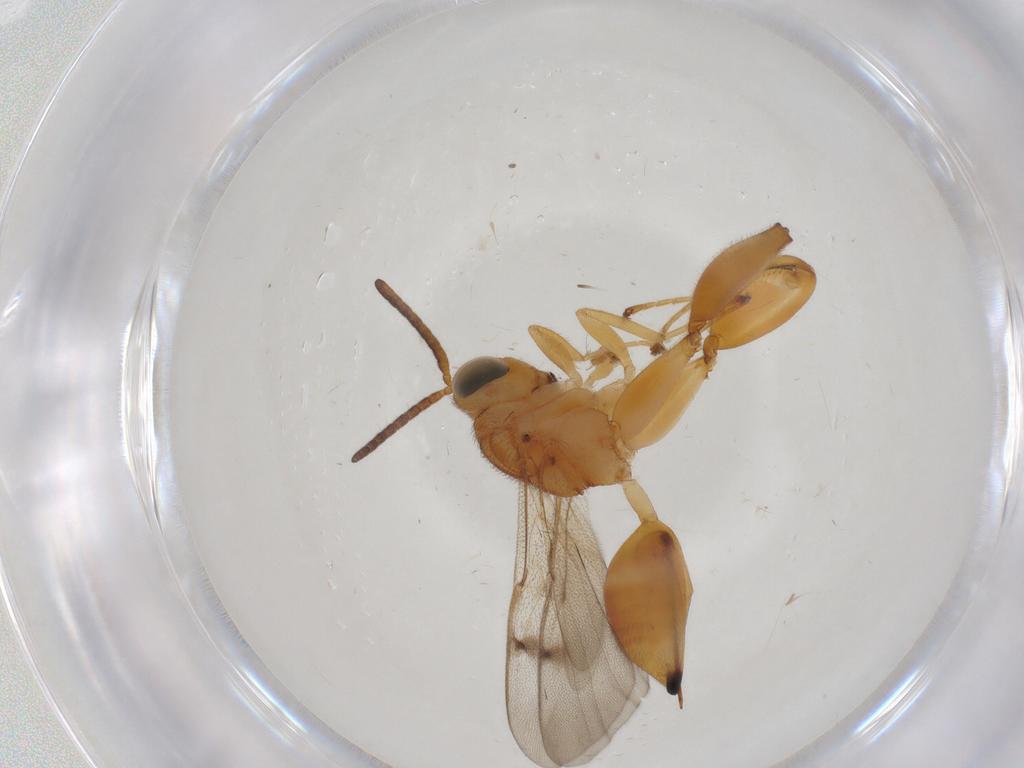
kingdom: Animalia
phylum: Arthropoda
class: Insecta
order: Hymenoptera
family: Chalcididae
